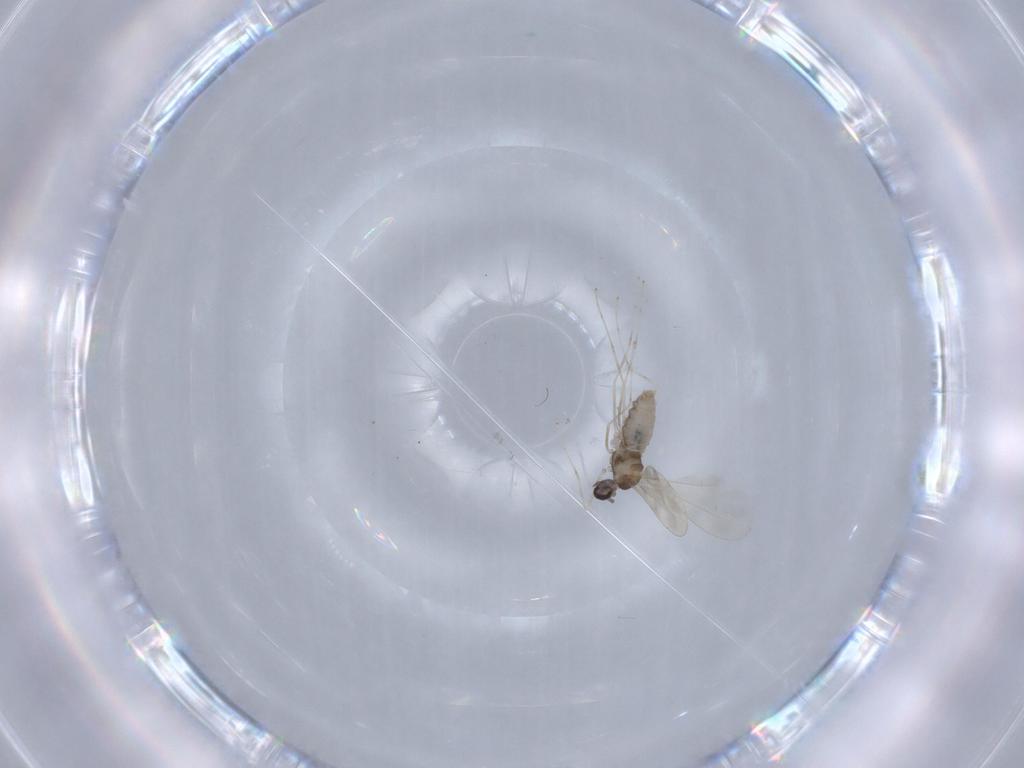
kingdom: Animalia
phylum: Arthropoda
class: Insecta
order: Diptera
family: Cecidomyiidae
